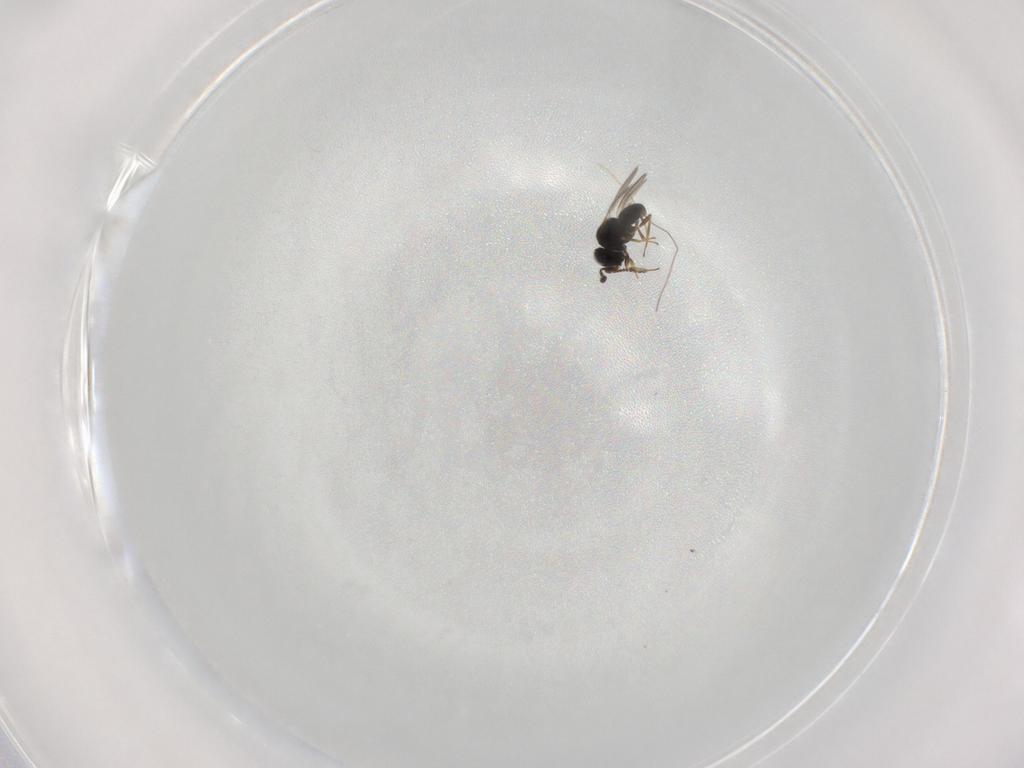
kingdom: Animalia
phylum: Arthropoda
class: Insecta
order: Hymenoptera
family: Scelionidae
